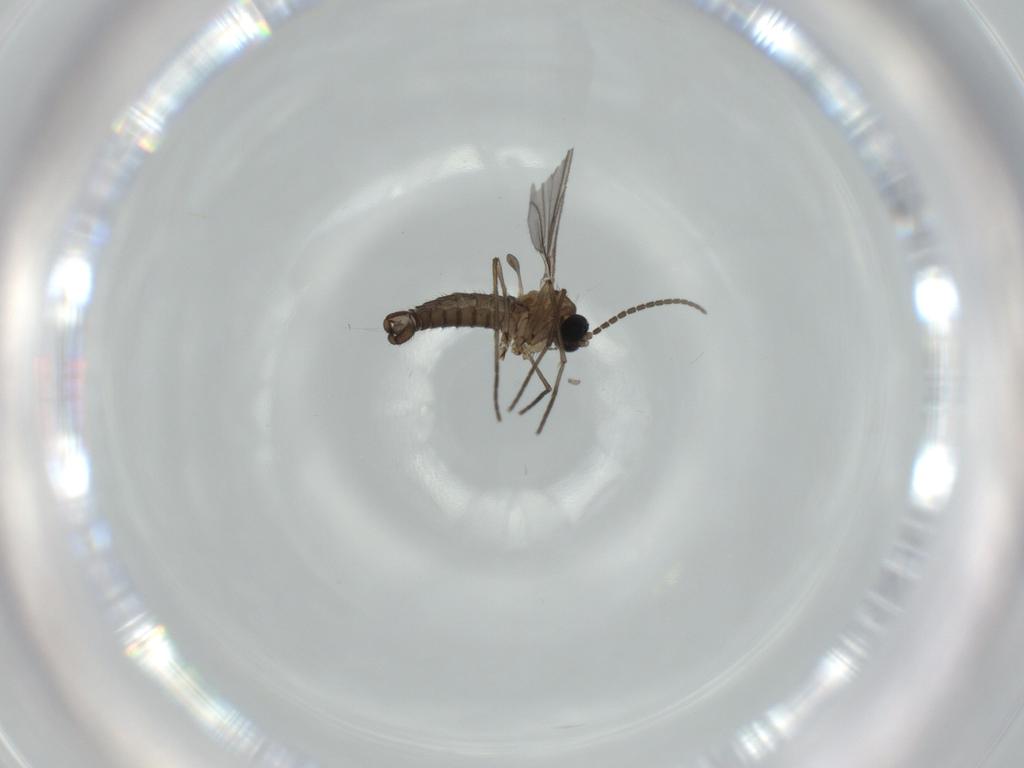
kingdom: Animalia
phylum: Arthropoda
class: Insecta
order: Diptera
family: Sciaridae
